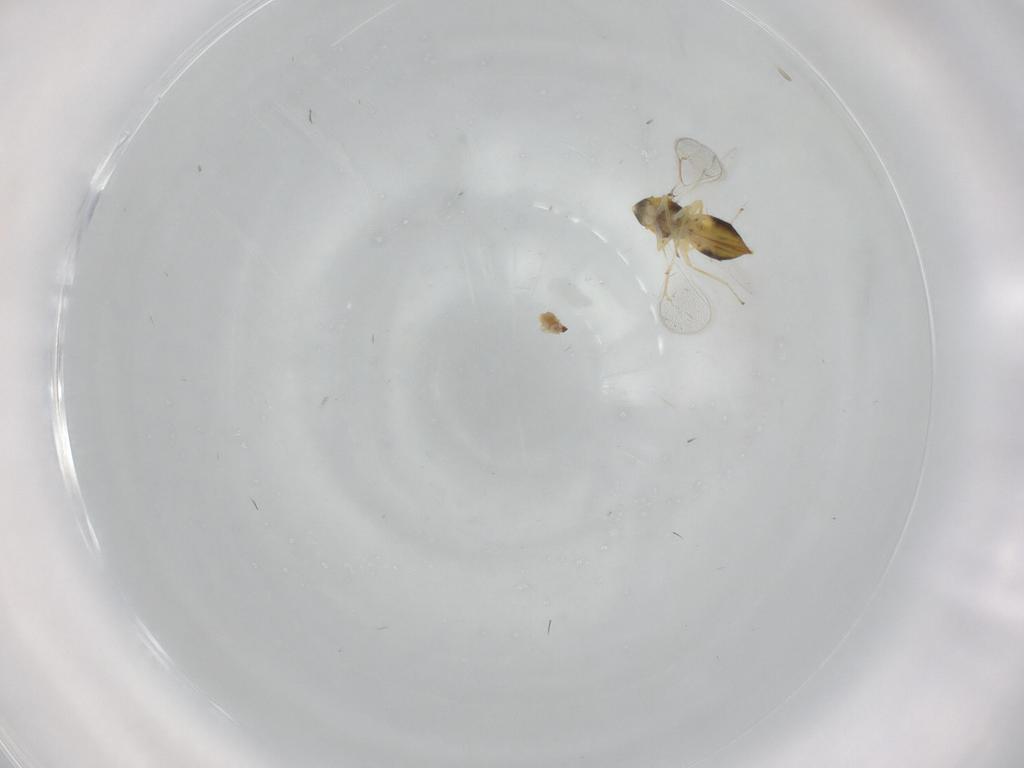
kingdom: Animalia
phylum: Arthropoda
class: Insecta
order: Hymenoptera
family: Eulophidae
